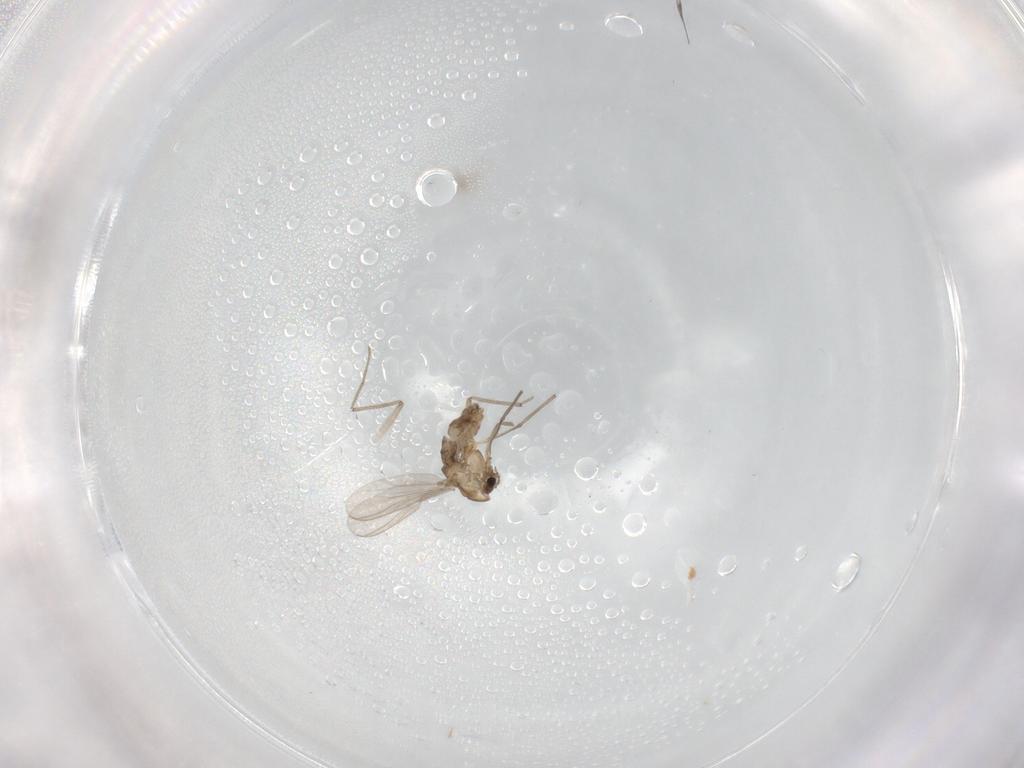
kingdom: Animalia
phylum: Arthropoda
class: Insecta
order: Diptera
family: Chironomidae
